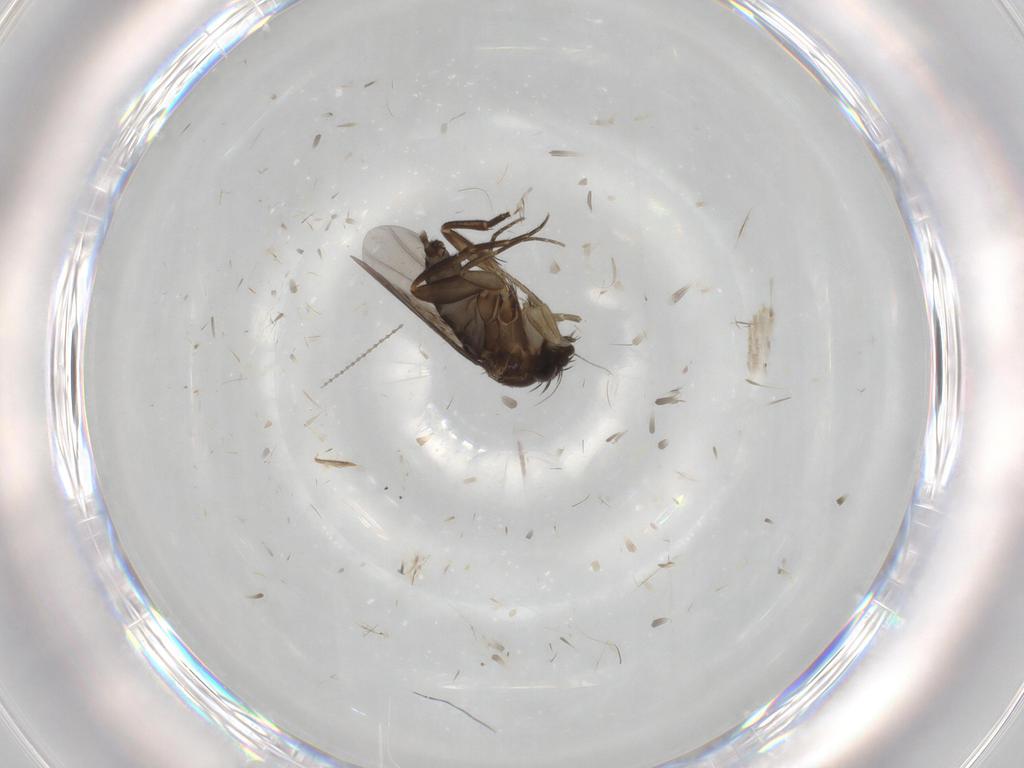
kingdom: Animalia
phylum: Arthropoda
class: Insecta
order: Diptera
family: Phoridae
